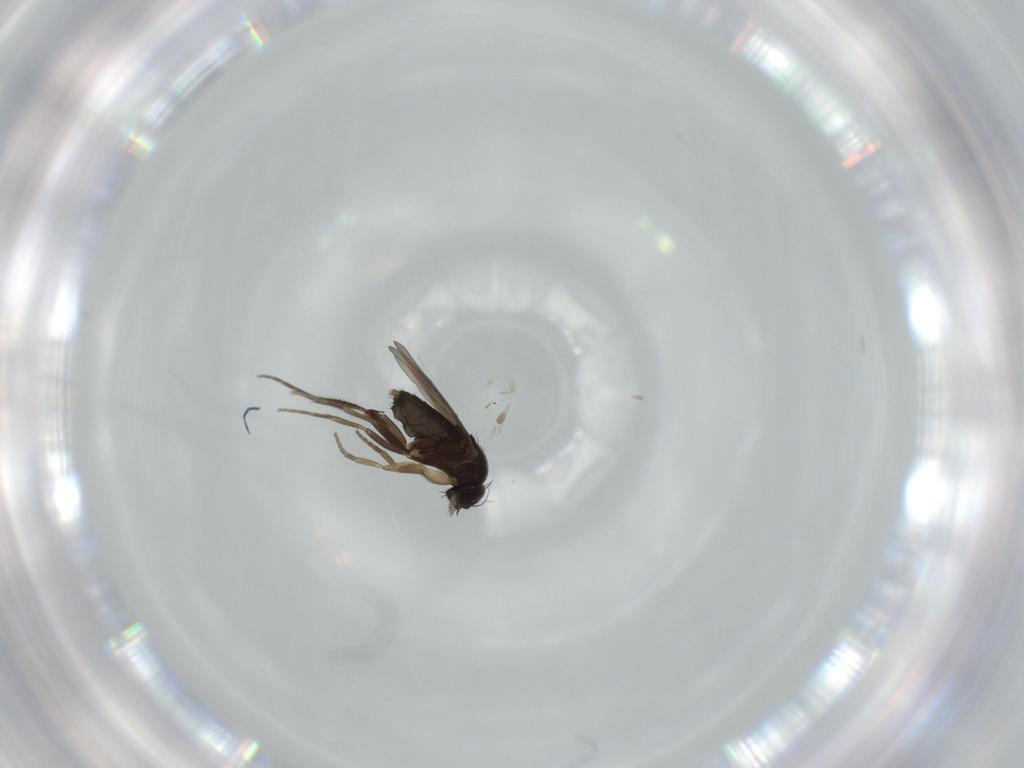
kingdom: Animalia
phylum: Arthropoda
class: Insecta
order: Diptera
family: Phoridae
